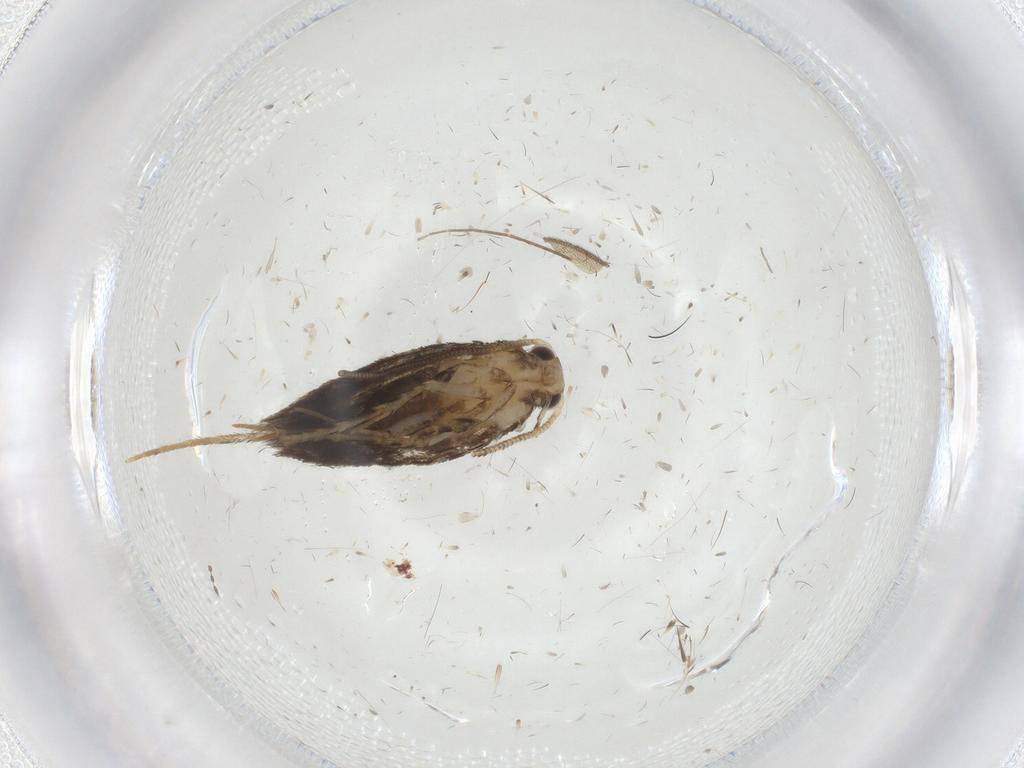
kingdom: Animalia
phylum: Arthropoda
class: Insecta
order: Lepidoptera
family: Tineidae
